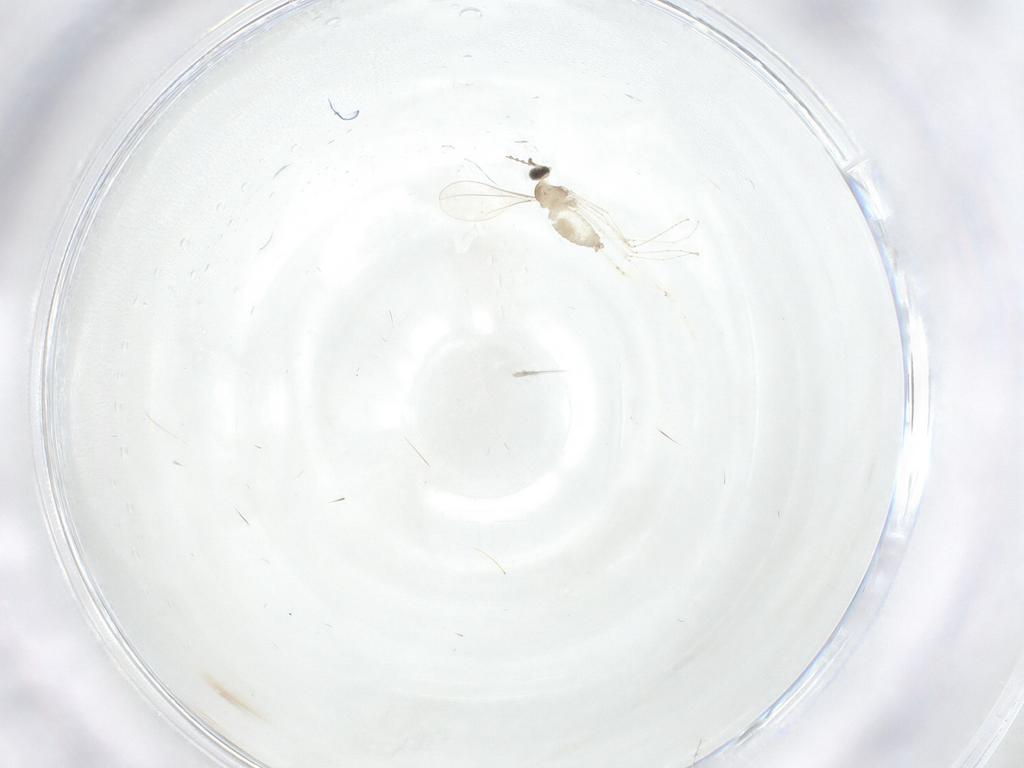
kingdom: Animalia
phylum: Arthropoda
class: Insecta
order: Diptera
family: Cecidomyiidae
